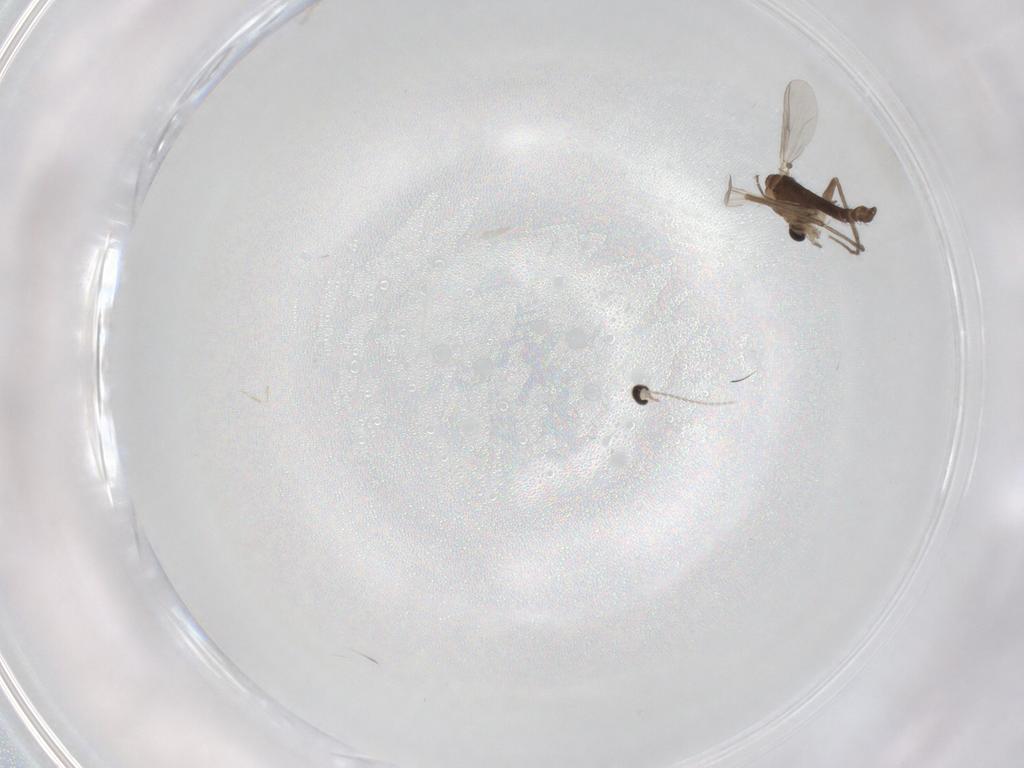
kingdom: Animalia
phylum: Arthropoda
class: Insecta
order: Diptera
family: Chironomidae
